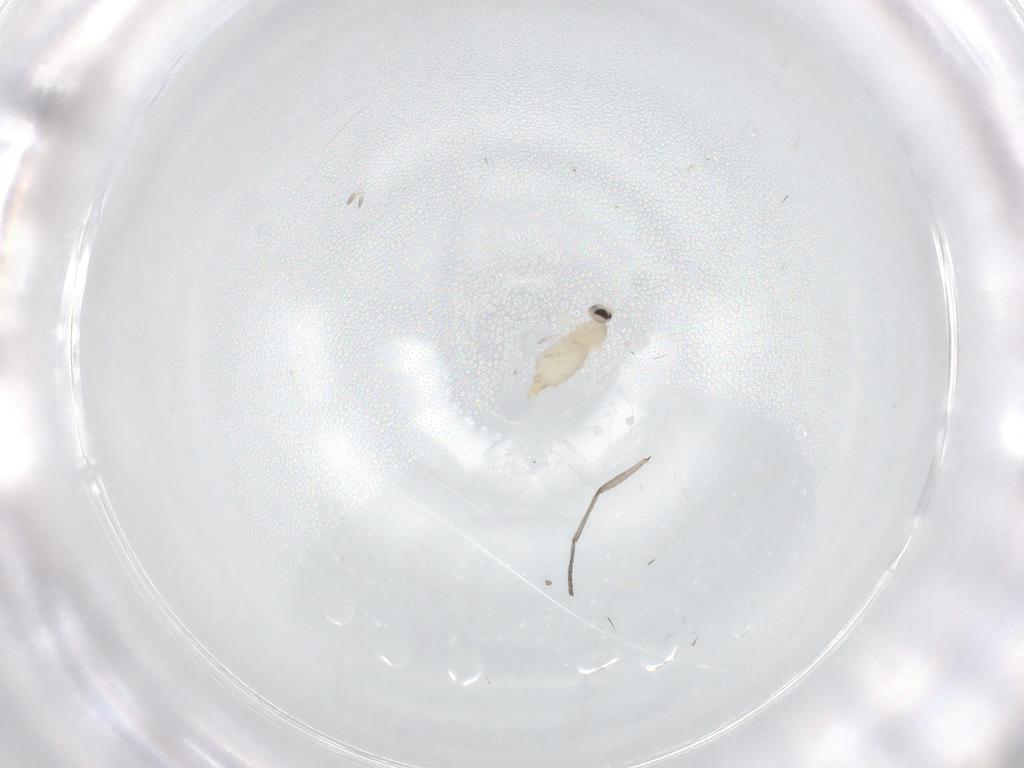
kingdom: Animalia
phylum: Arthropoda
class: Insecta
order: Diptera
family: Cecidomyiidae
